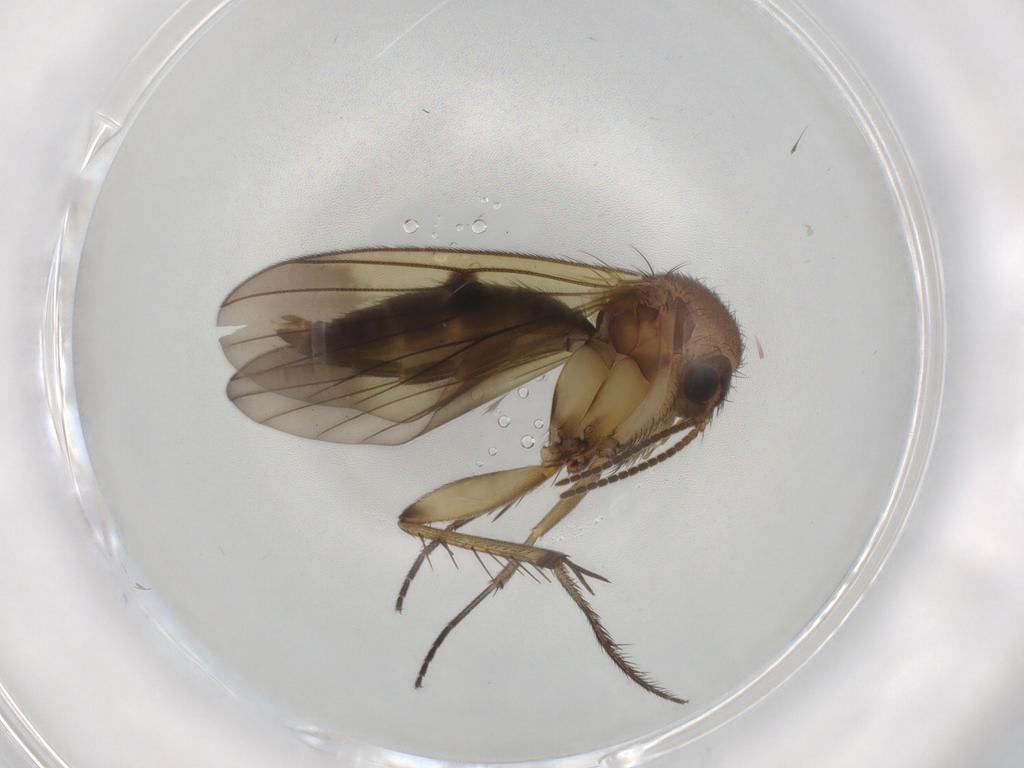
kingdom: Animalia
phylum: Arthropoda
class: Insecta
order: Diptera
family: Mycetophilidae
